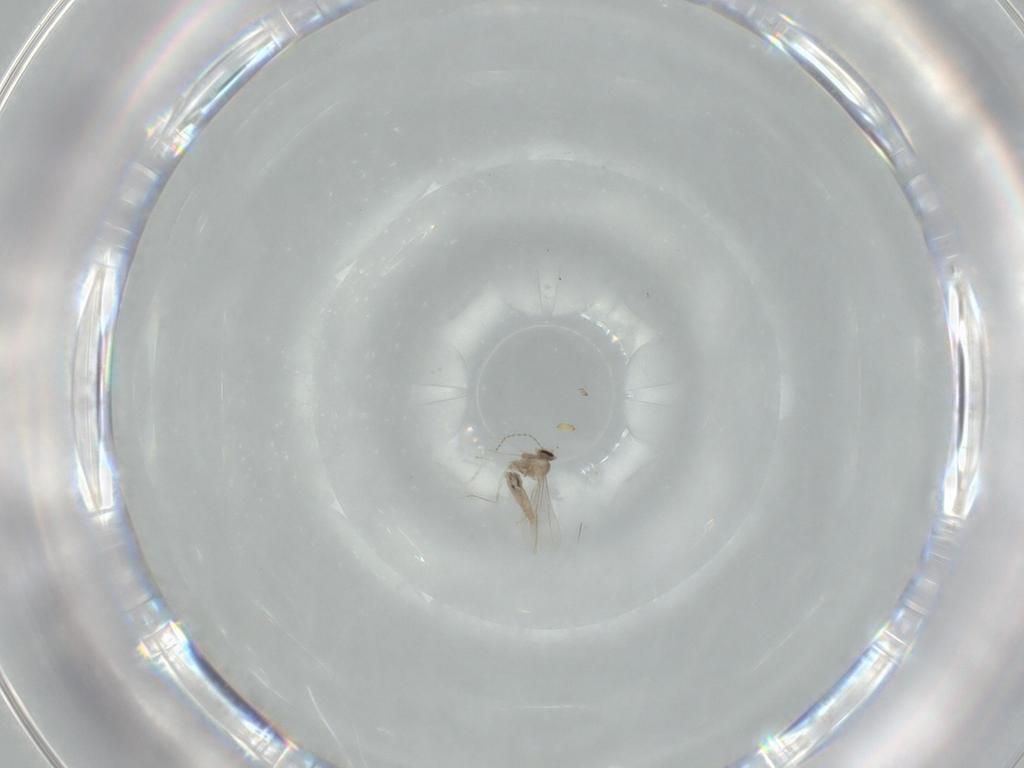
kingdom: Animalia
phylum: Arthropoda
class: Insecta
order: Diptera
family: Cecidomyiidae
